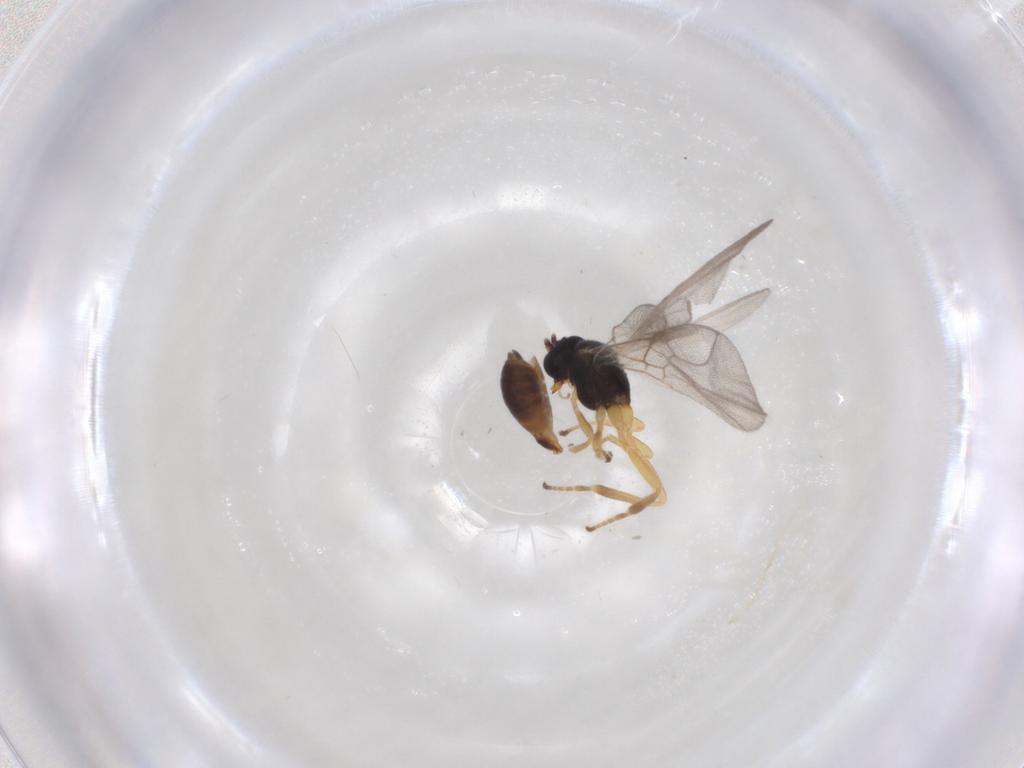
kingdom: Animalia
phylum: Arthropoda
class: Insecta
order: Hymenoptera
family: Braconidae
